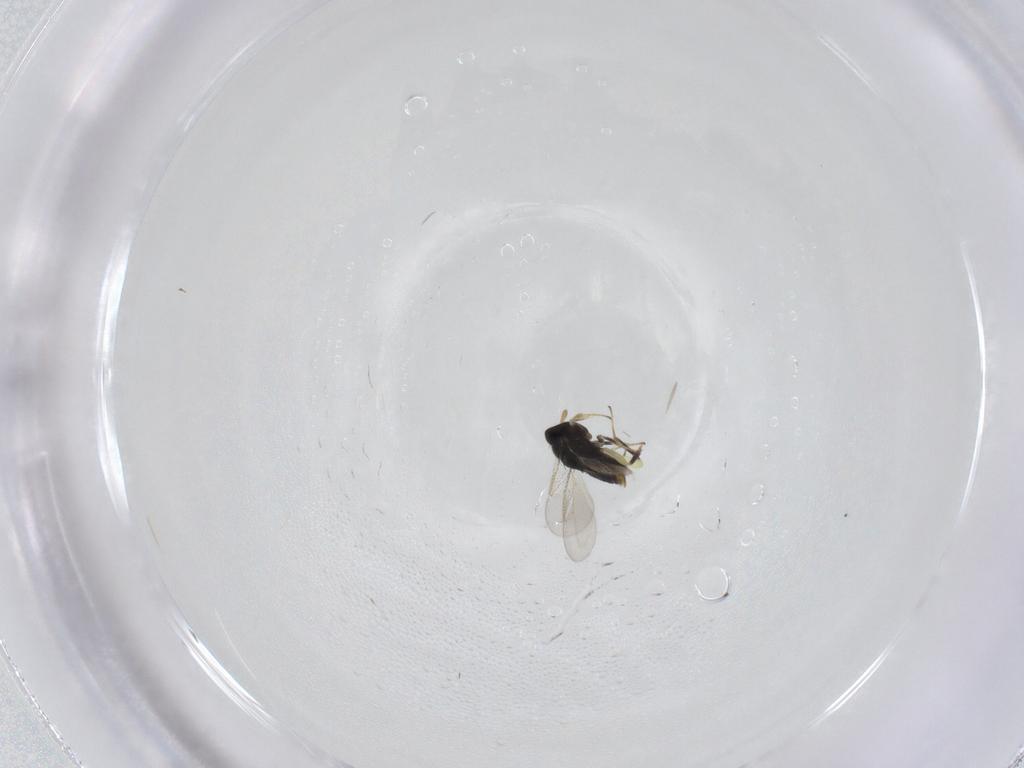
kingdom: Animalia
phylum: Arthropoda
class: Insecta
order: Hymenoptera
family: Aphelinidae
